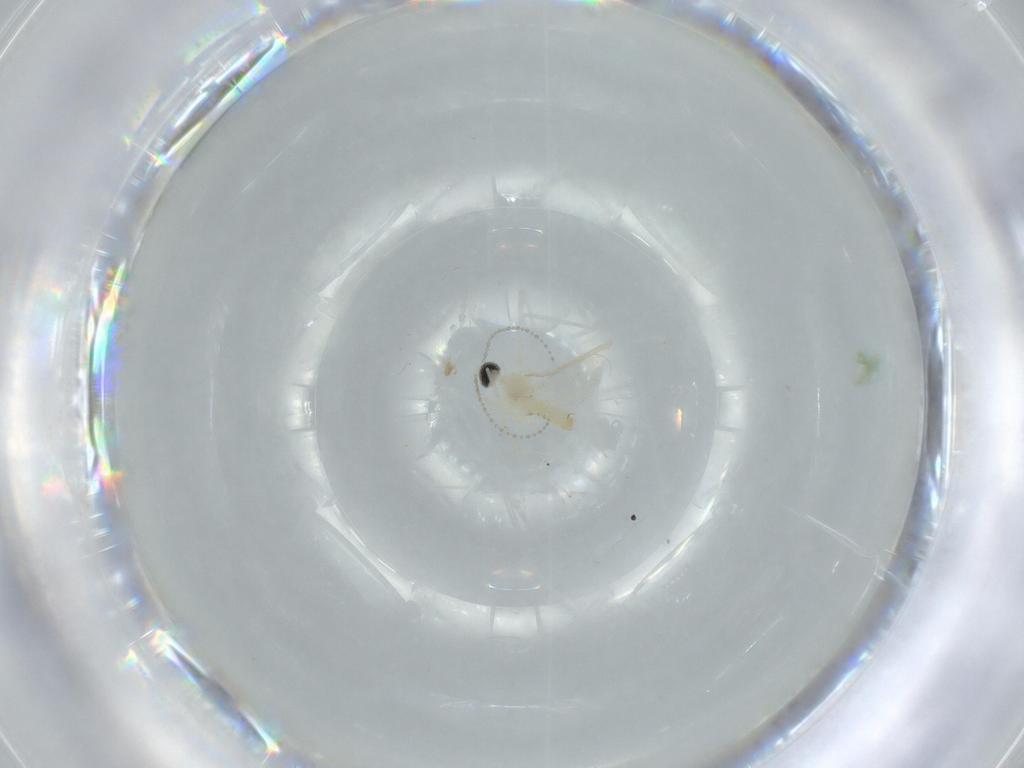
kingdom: Animalia
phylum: Arthropoda
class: Insecta
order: Diptera
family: Cecidomyiidae
